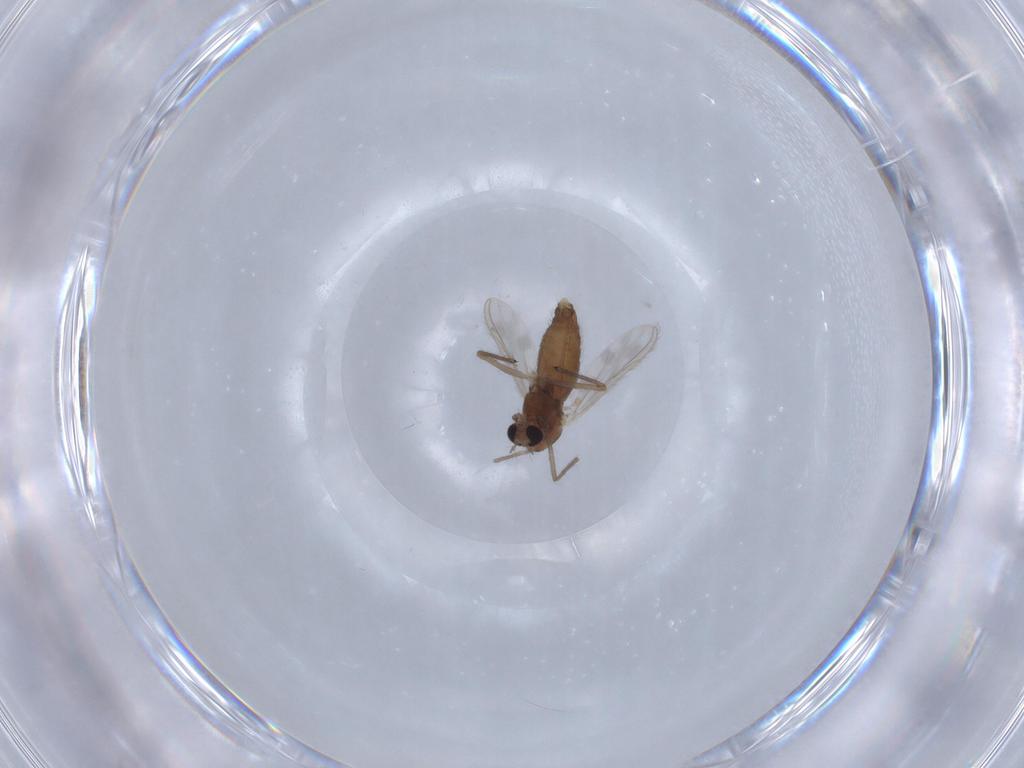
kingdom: Animalia
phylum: Arthropoda
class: Insecta
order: Diptera
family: Chironomidae
